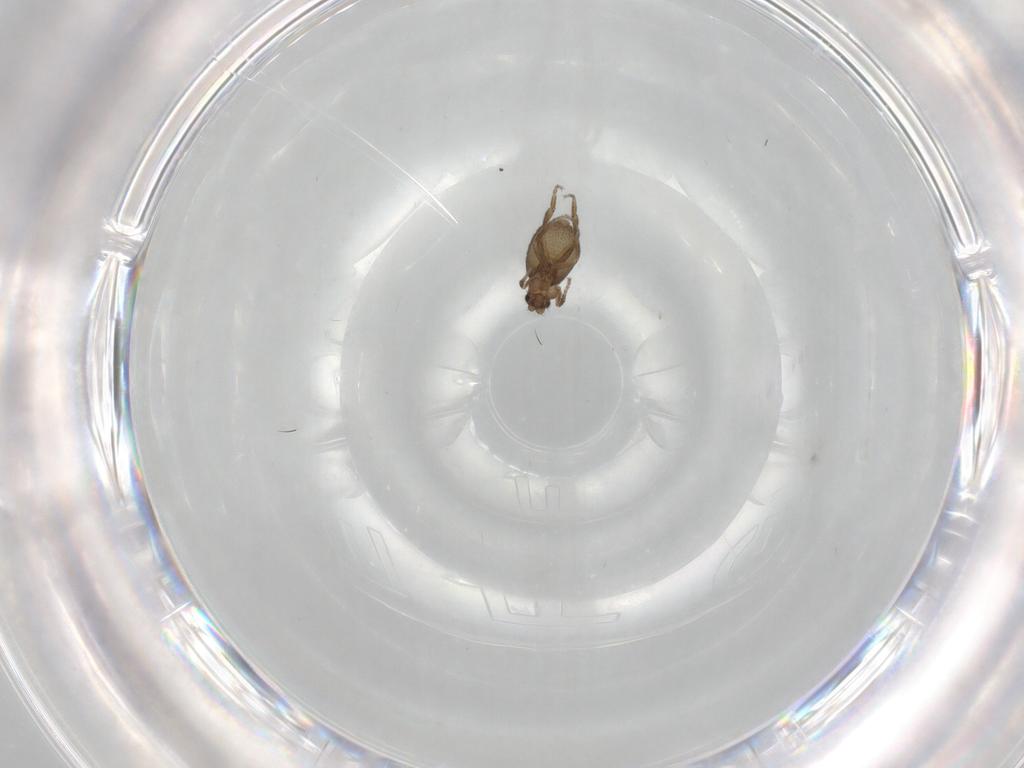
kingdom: Animalia
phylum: Arthropoda
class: Insecta
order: Diptera
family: Chironomidae
